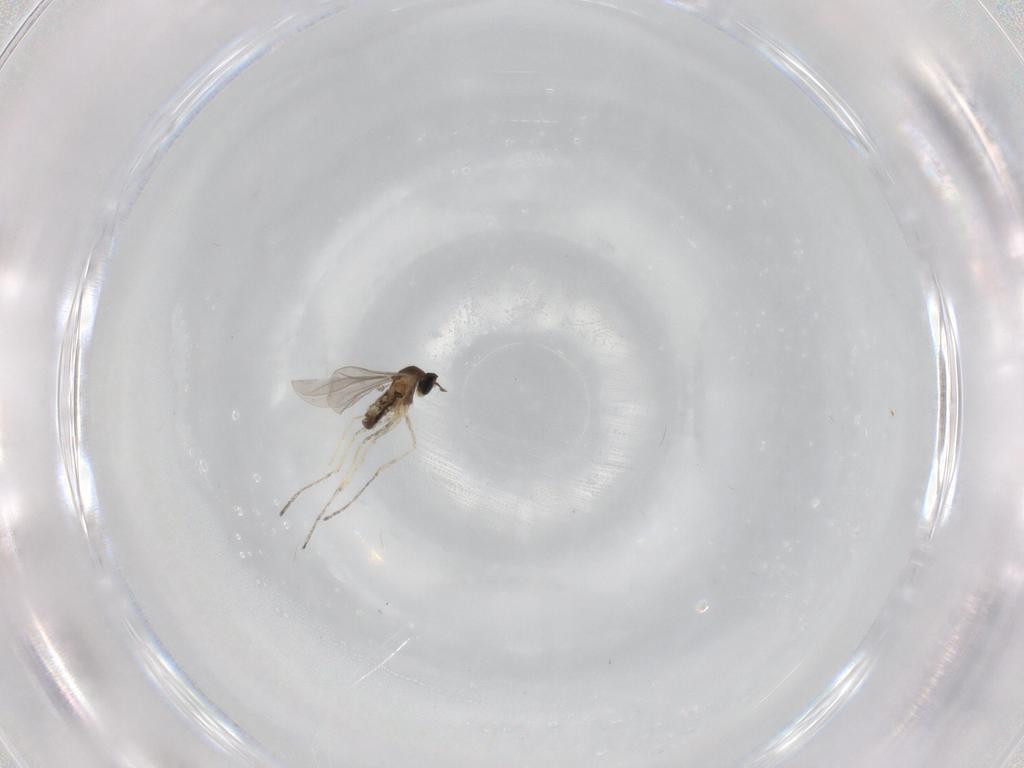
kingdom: Animalia
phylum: Arthropoda
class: Insecta
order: Diptera
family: Cecidomyiidae
